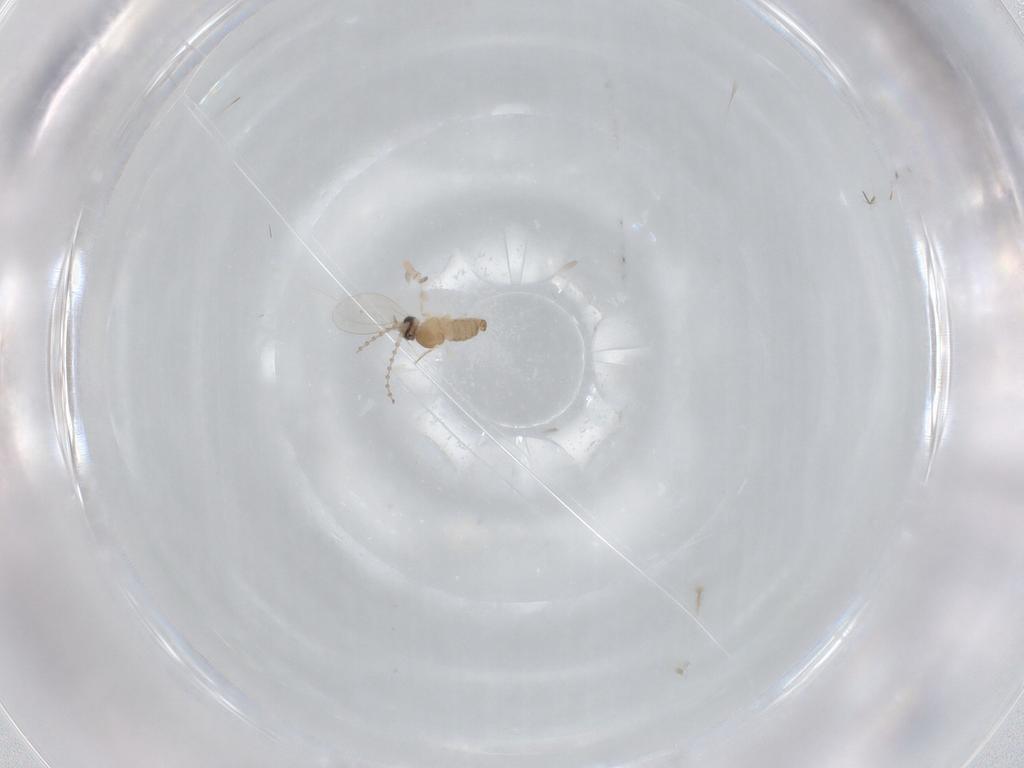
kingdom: Animalia
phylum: Arthropoda
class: Insecta
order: Diptera
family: Cecidomyiidae
